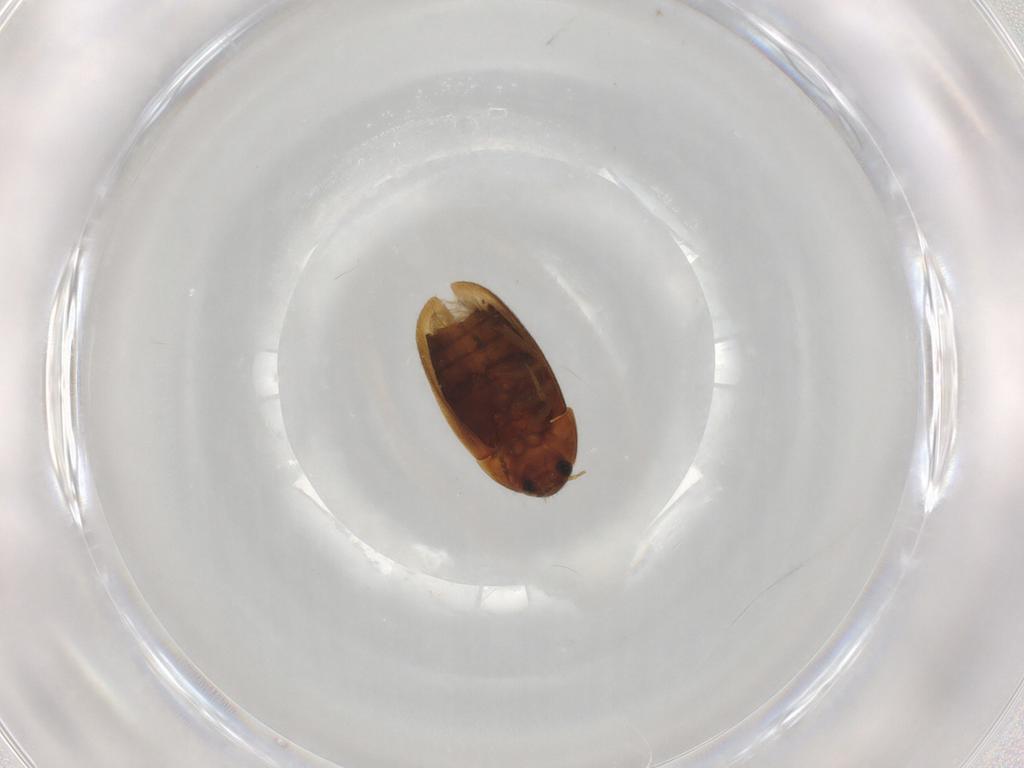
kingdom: Animalia
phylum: Arthropoda
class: Insecta
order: Coleoptera
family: Mycetophagidae
